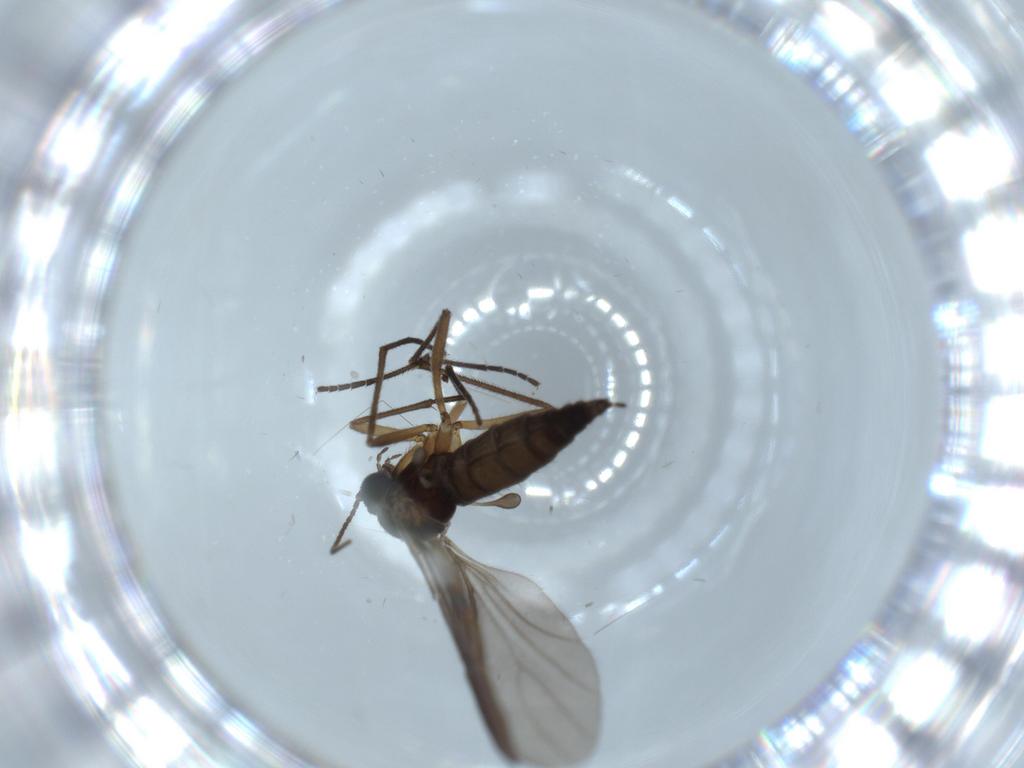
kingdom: Animalia
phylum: Arthropoda
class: Insecta
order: Diptera
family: Sciaridae
